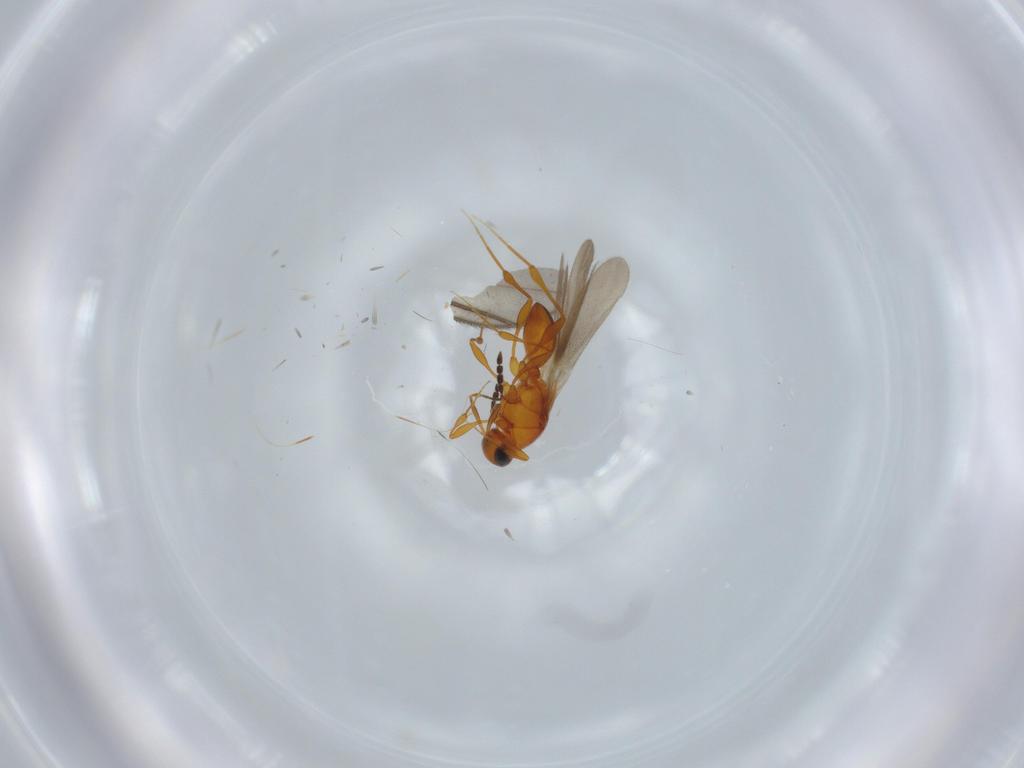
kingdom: Animalia
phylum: Arthropoda
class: Insecta
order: Hymenoptera
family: Platygastridae
